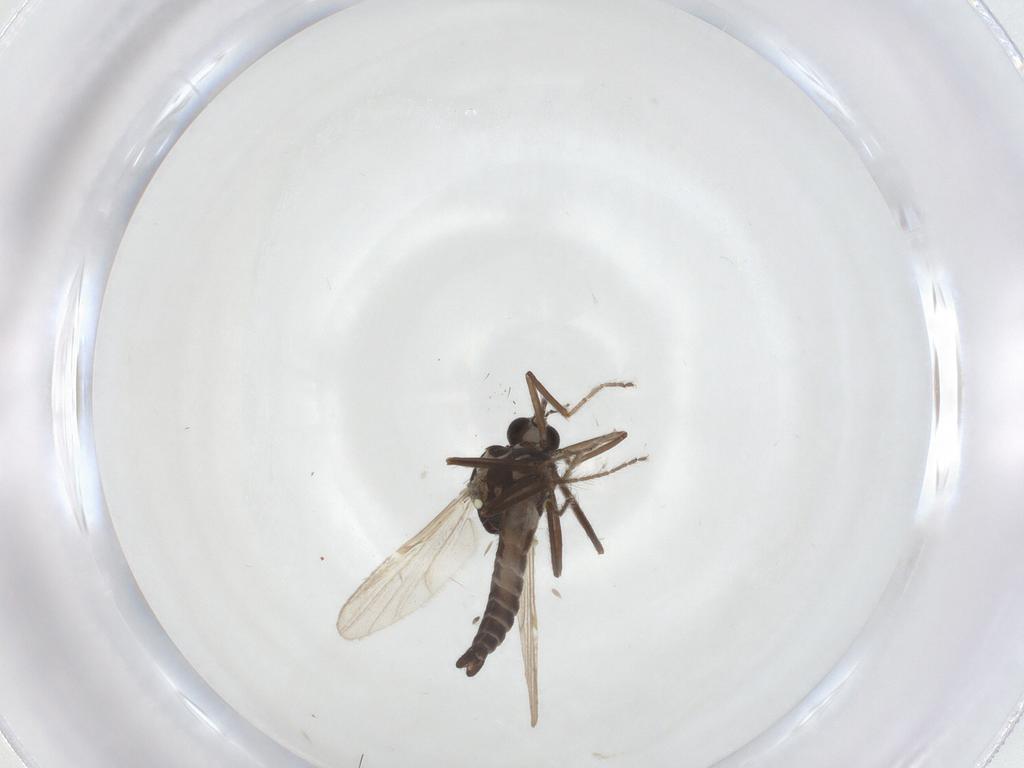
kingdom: Animalia
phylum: Arthropoda
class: Insecta
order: Diptera
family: Ceratopogonidae
